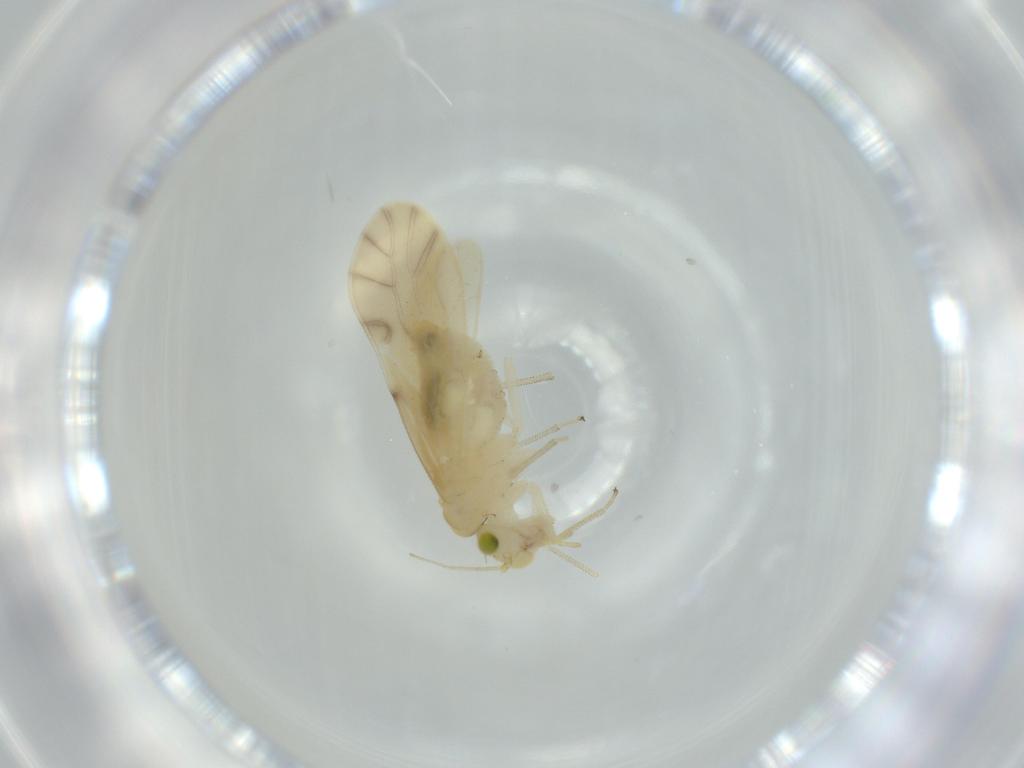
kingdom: Animalia
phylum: Arthropoda
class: Insecta
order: Psocodea
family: Caeciliusidae
